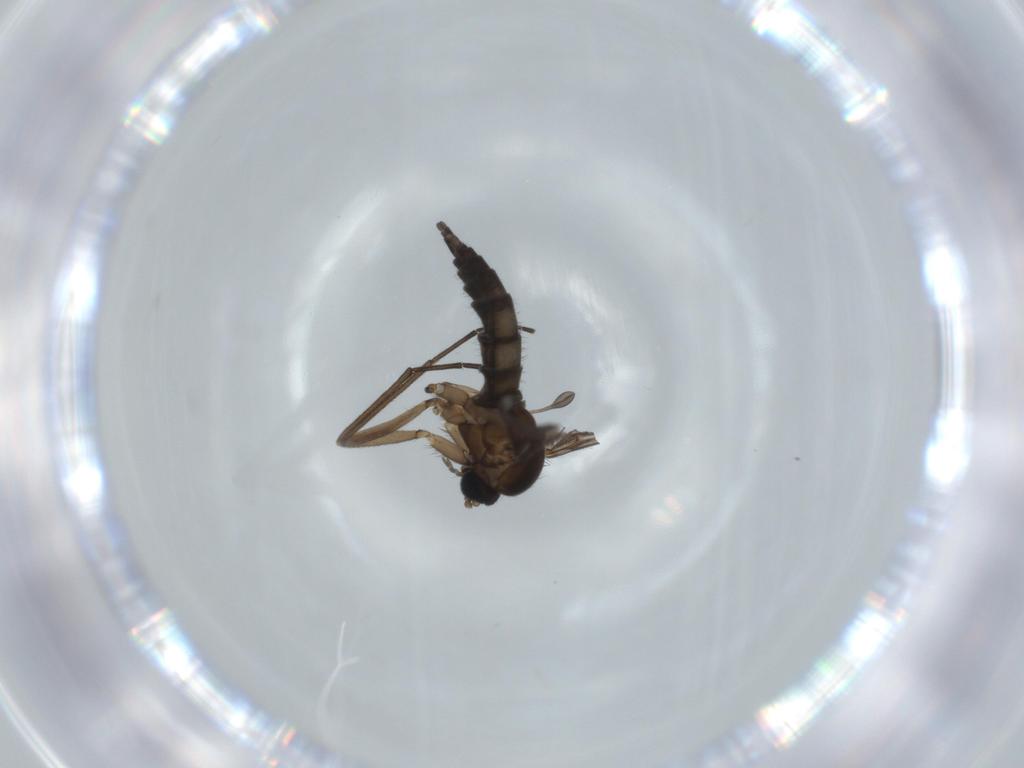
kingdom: Animalia
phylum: Arthropoda
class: Insecta
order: Diptera
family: Sciaridae
